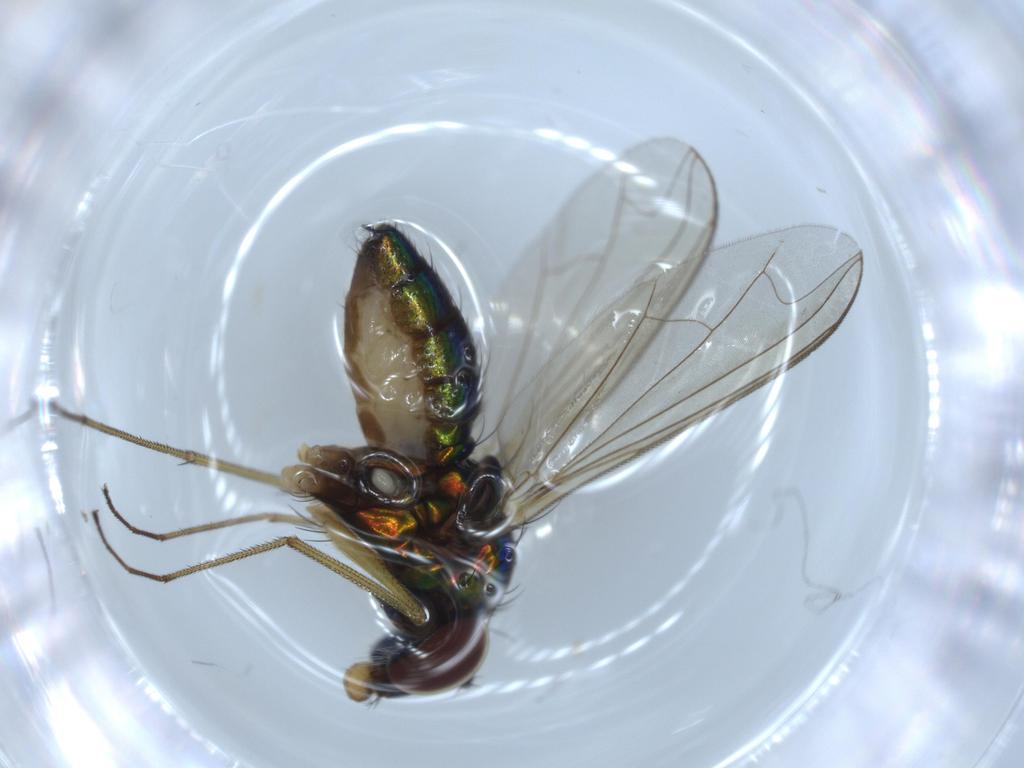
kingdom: Animalia
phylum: Arthropoda
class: Insecta
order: Diptera
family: Dolichopodidae
